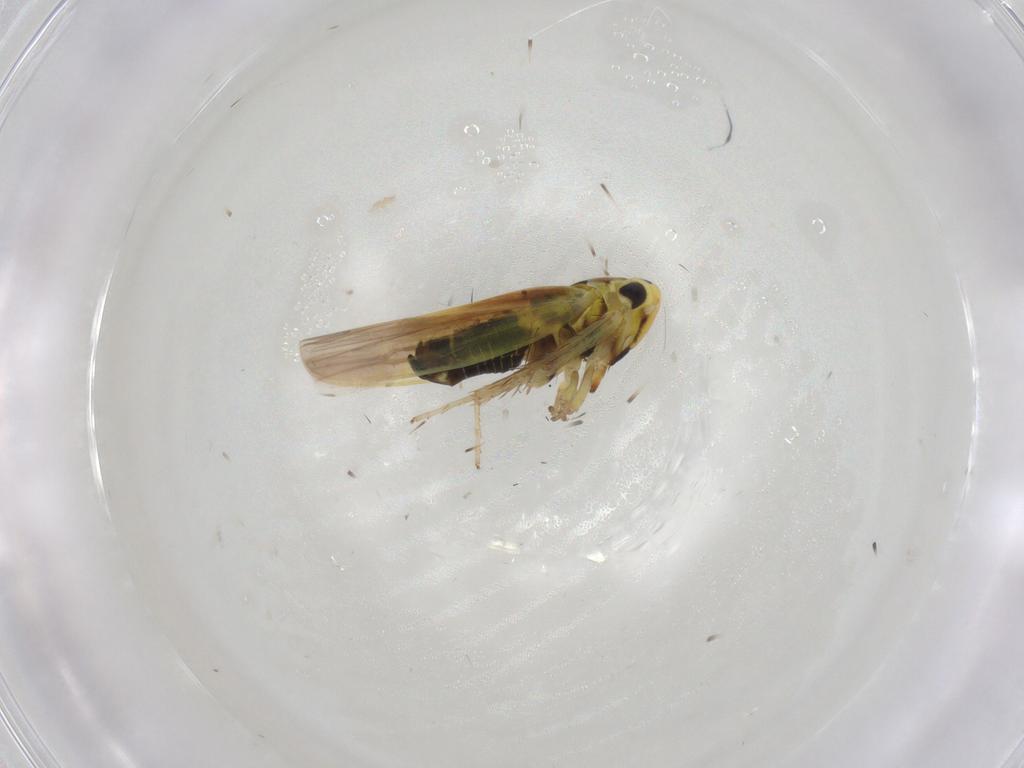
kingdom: Animalia
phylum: Arthropoda
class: Insecta
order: Hemiptera
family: Cicadellidae
